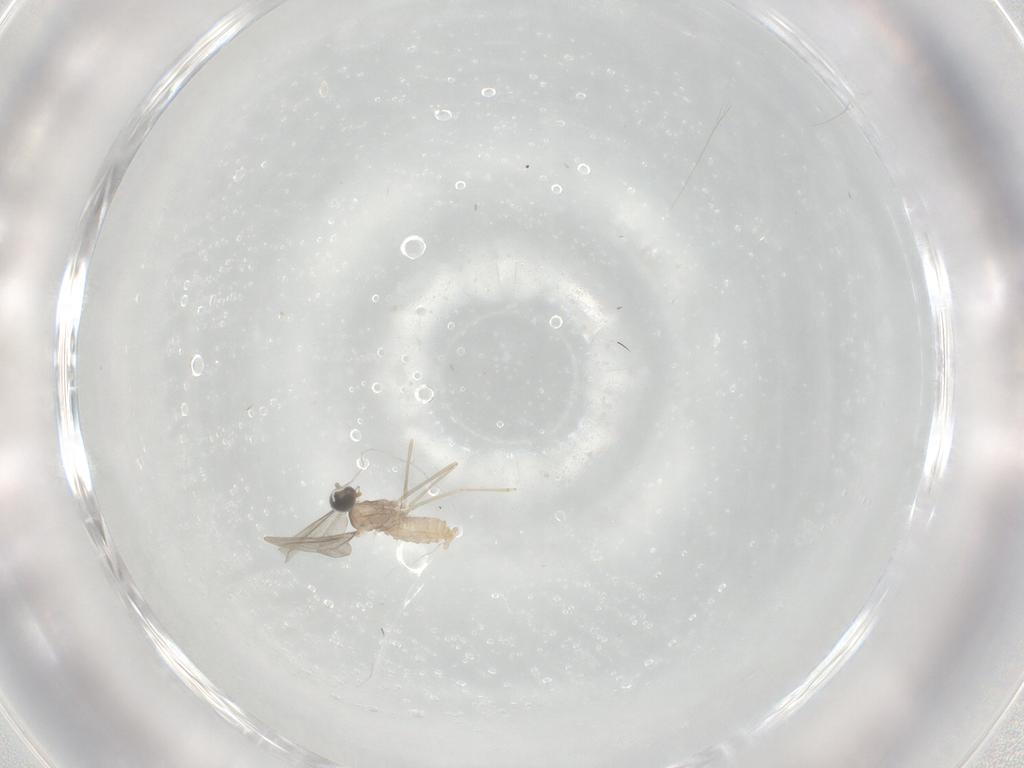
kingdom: Animalia
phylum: Arthropoda
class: Insecta
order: Diptera
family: Cecidomyiidae
